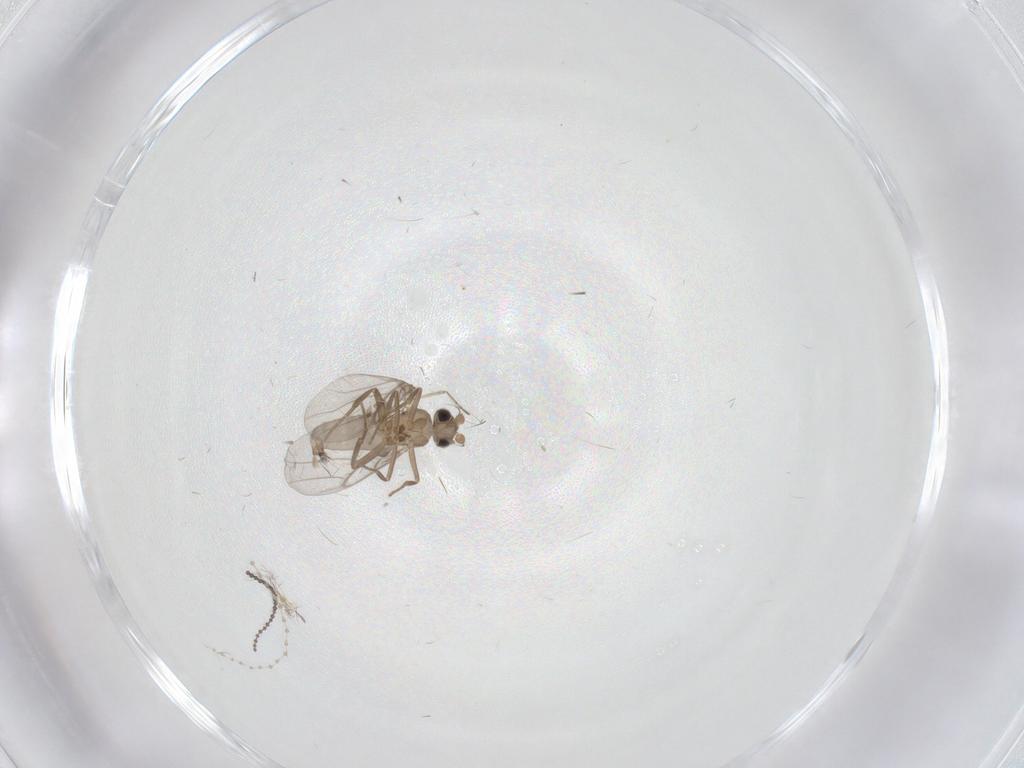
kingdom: Animalia
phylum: Arthropoda
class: Insecta
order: Diptera
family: Cecidomyiidae
